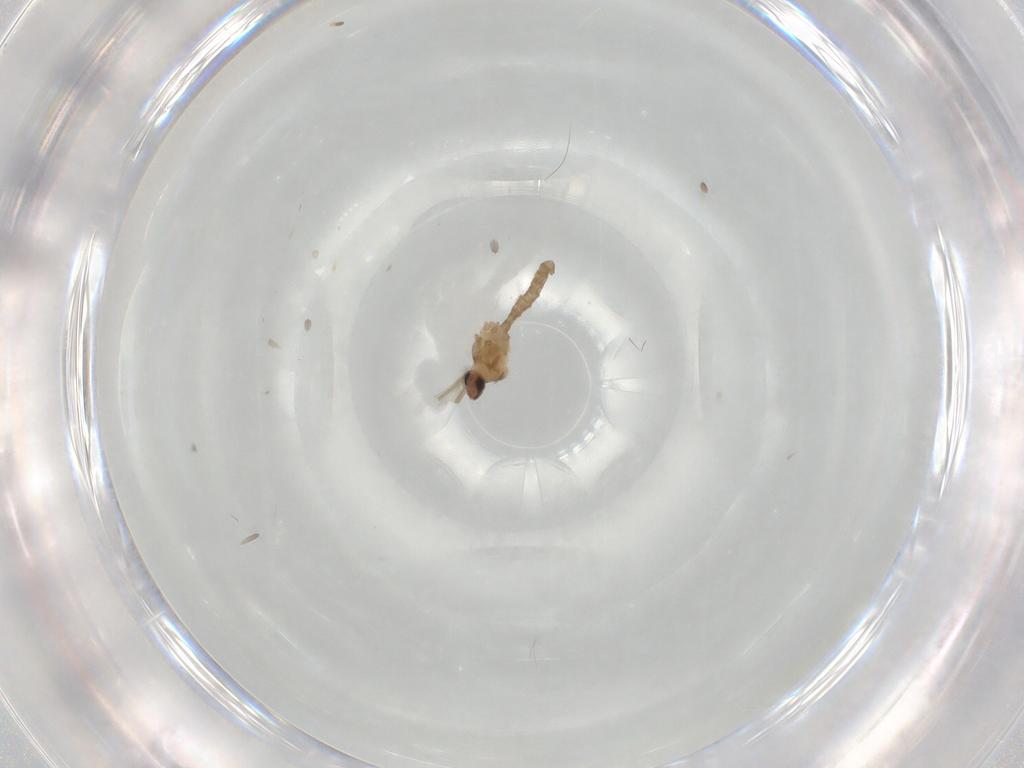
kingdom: Animalia
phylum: Arthropoda
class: Insecta
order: Diptera
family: Cecidomyiidae
